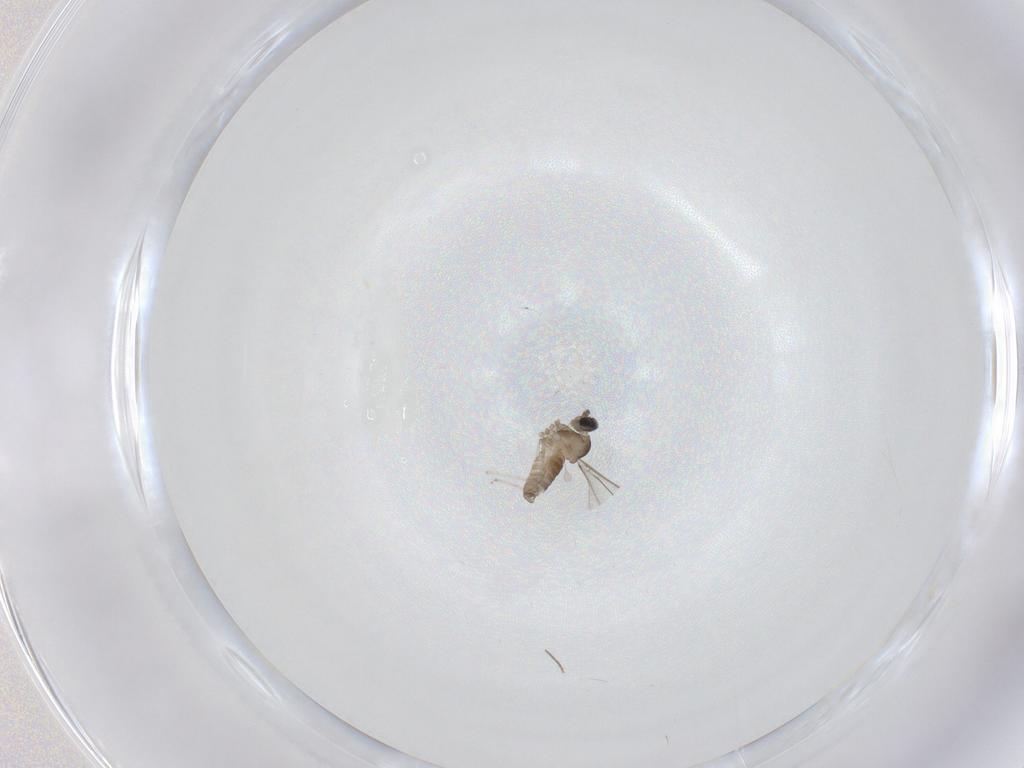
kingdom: Animalia
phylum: Arthropoda
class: Insecta
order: Diptera
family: Cecidomyiidae
